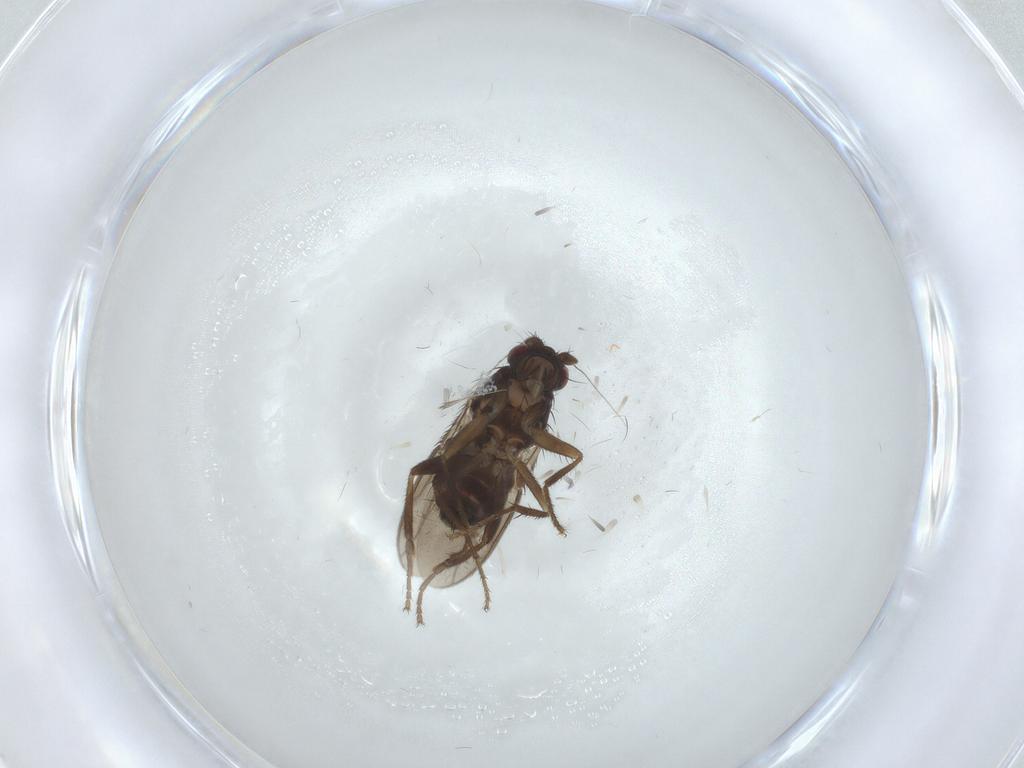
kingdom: Animalia
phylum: Arthropoda
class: Insecta
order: Diptera
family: Sphaeroceridae
